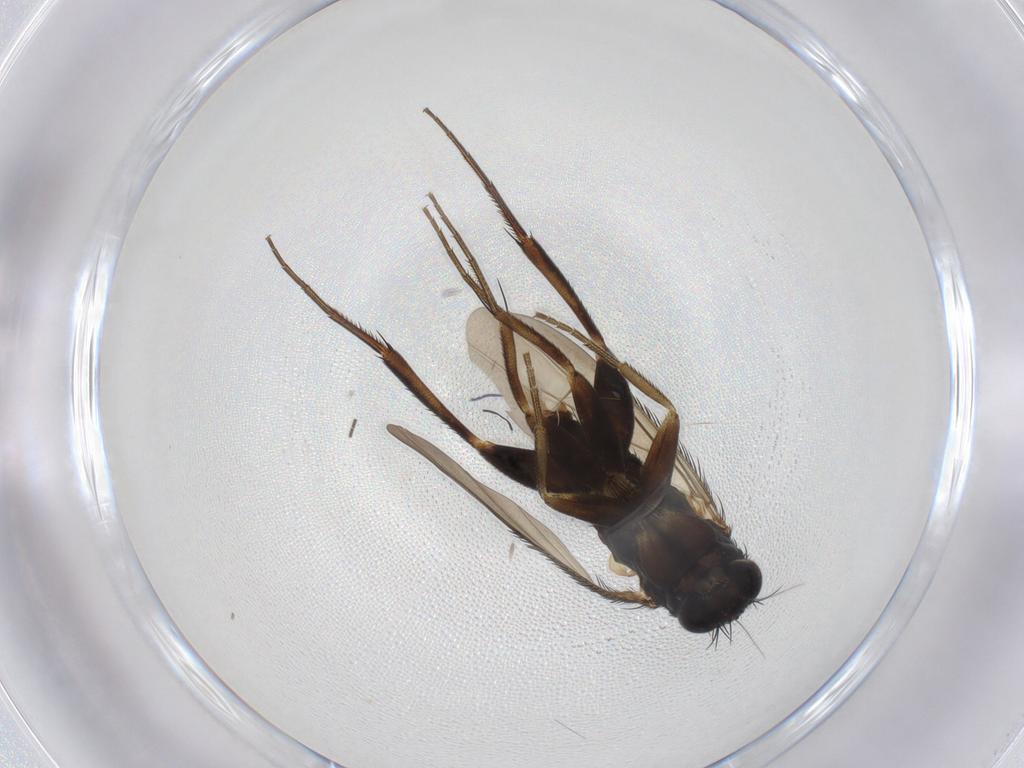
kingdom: Animalia
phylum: Arthropoda
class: Insecta
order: Diptera
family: Phoridae
